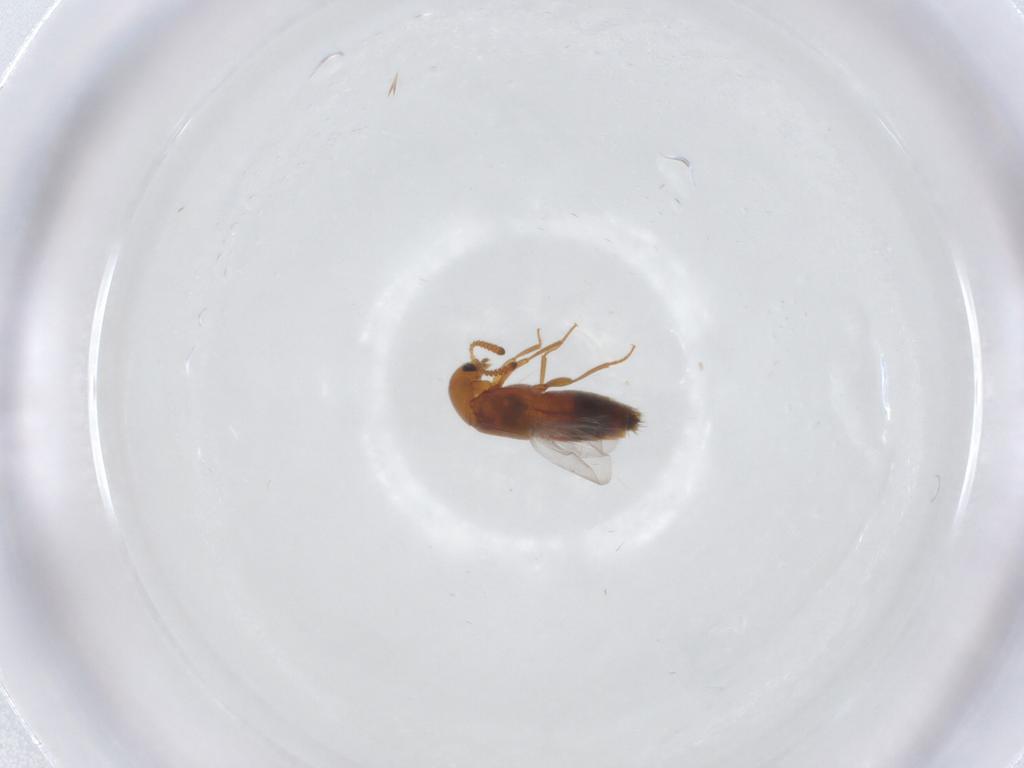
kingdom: Animalia
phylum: Arthropoda
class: Insecta
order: Coleoptera
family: Staphylinidae
